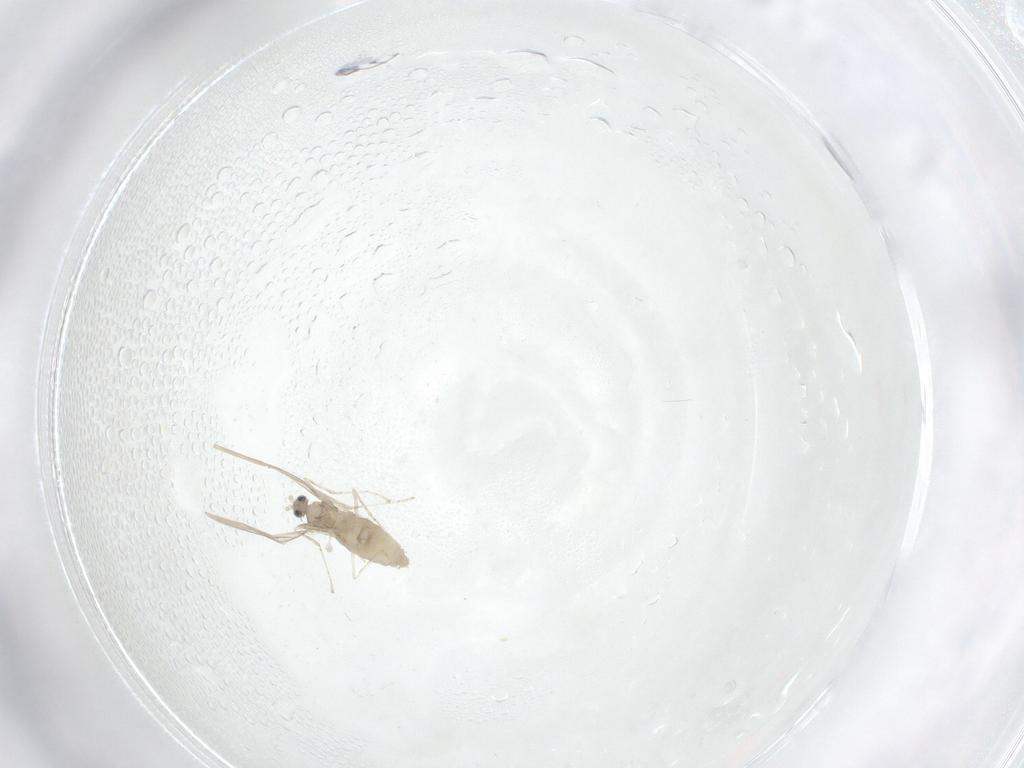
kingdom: Animalia
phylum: Arthropoda
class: Insecta
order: Diptera
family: Cecidomyiidae
